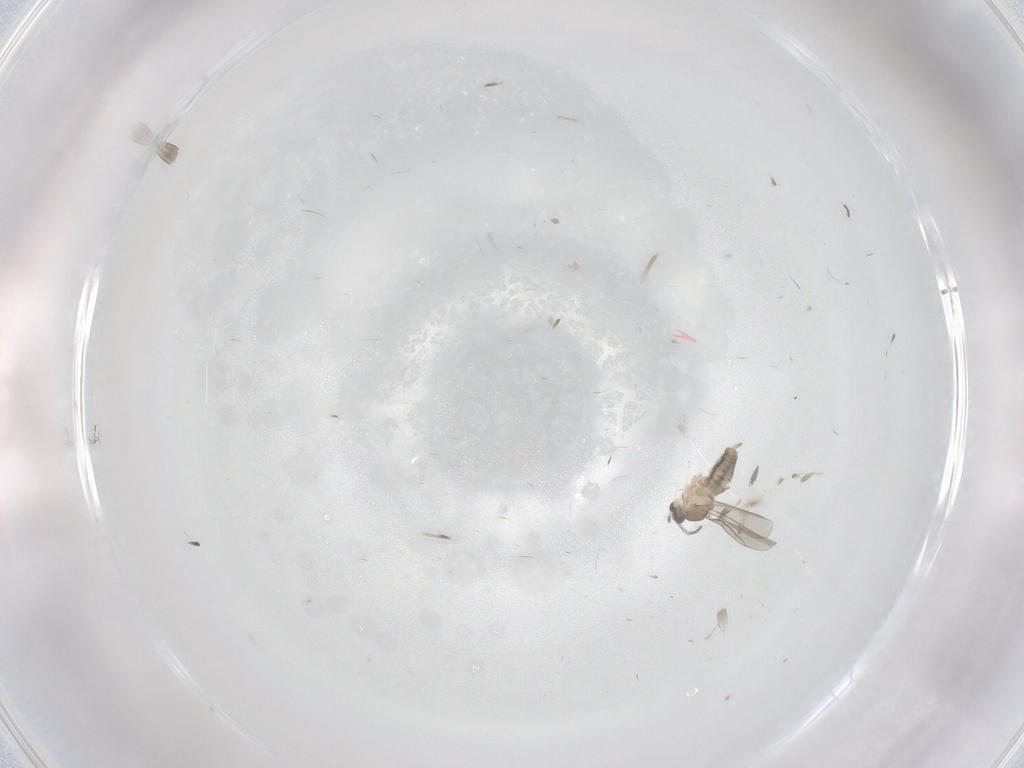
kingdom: Animalia
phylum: Arthropoda
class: Insecta
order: Diptera
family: Cecidomyiidae
